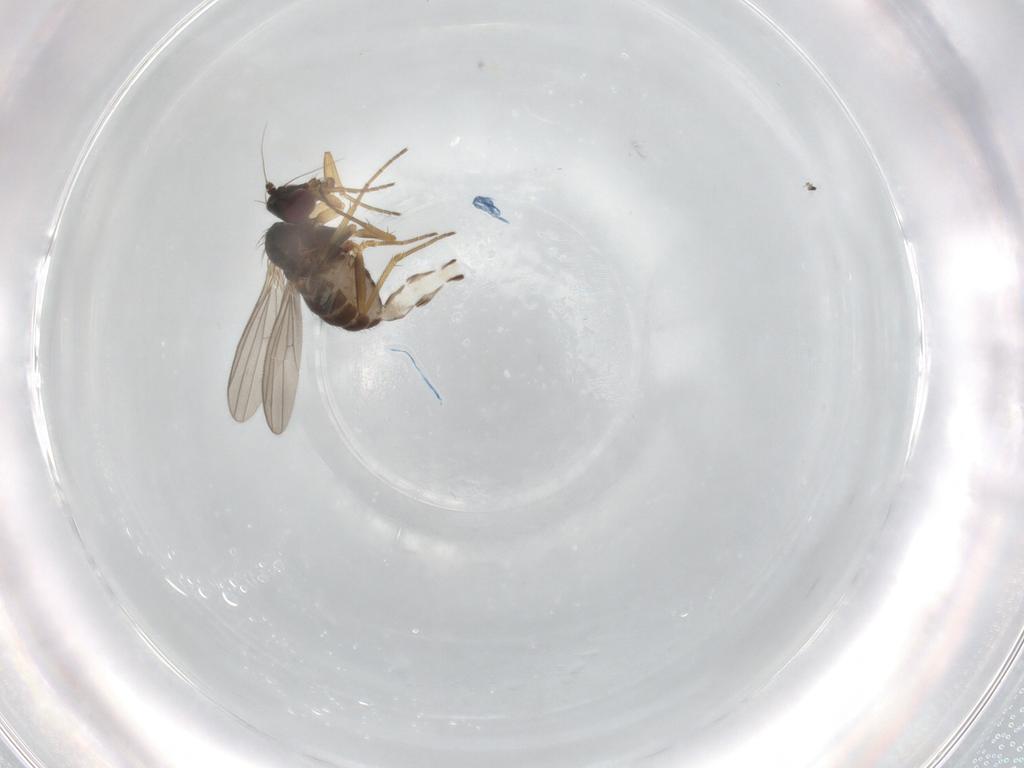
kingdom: Animalia
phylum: Arthropoda
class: Insecta
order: Diptera
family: Dolichopodidae
